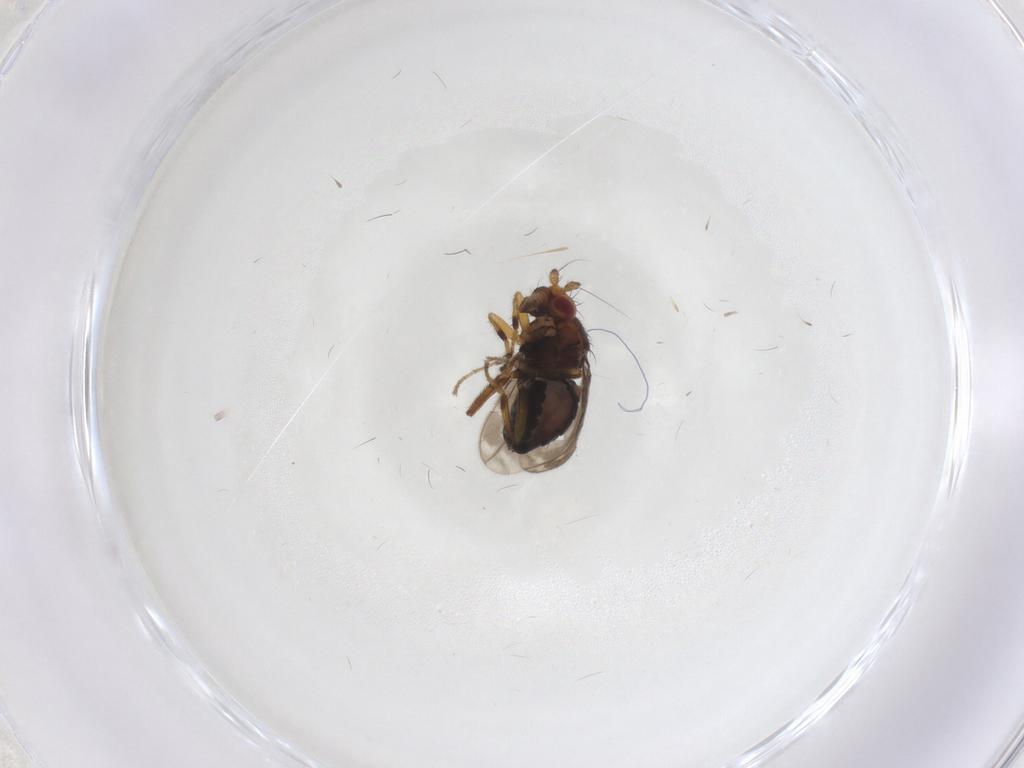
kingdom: Animalia
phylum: Arthropoda
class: Insecta
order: Diptera
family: Sphaeroceridae
